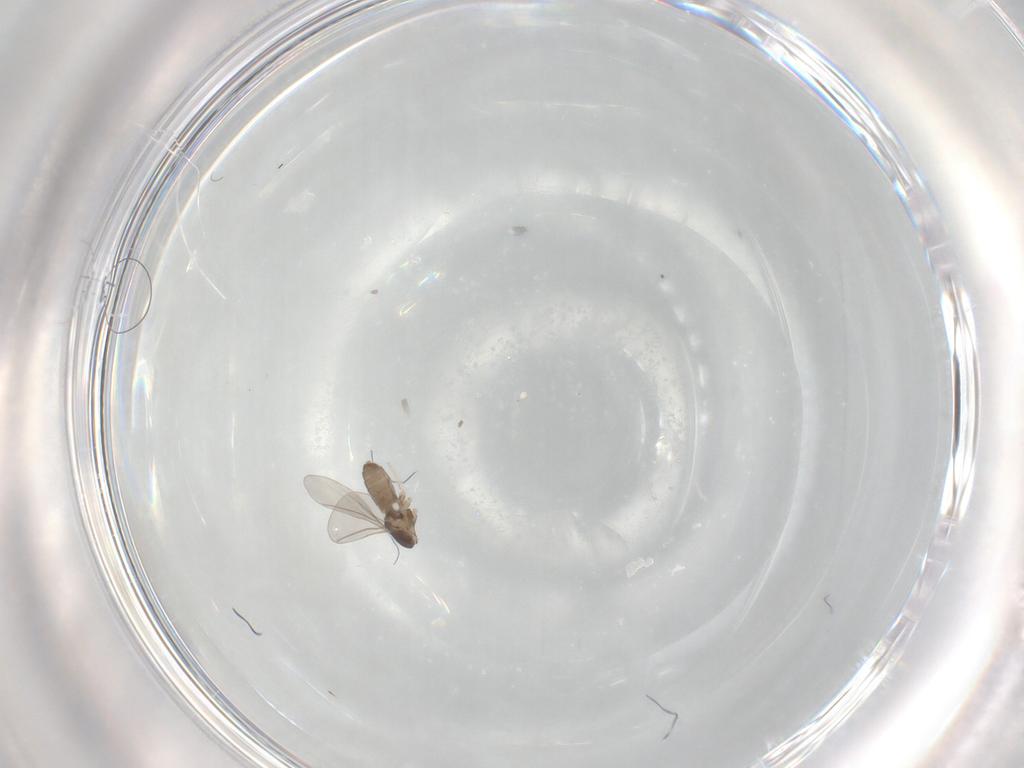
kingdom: Animalia
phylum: Arthropoda
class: Insecta
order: Diptera
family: Cecidomyiidae
